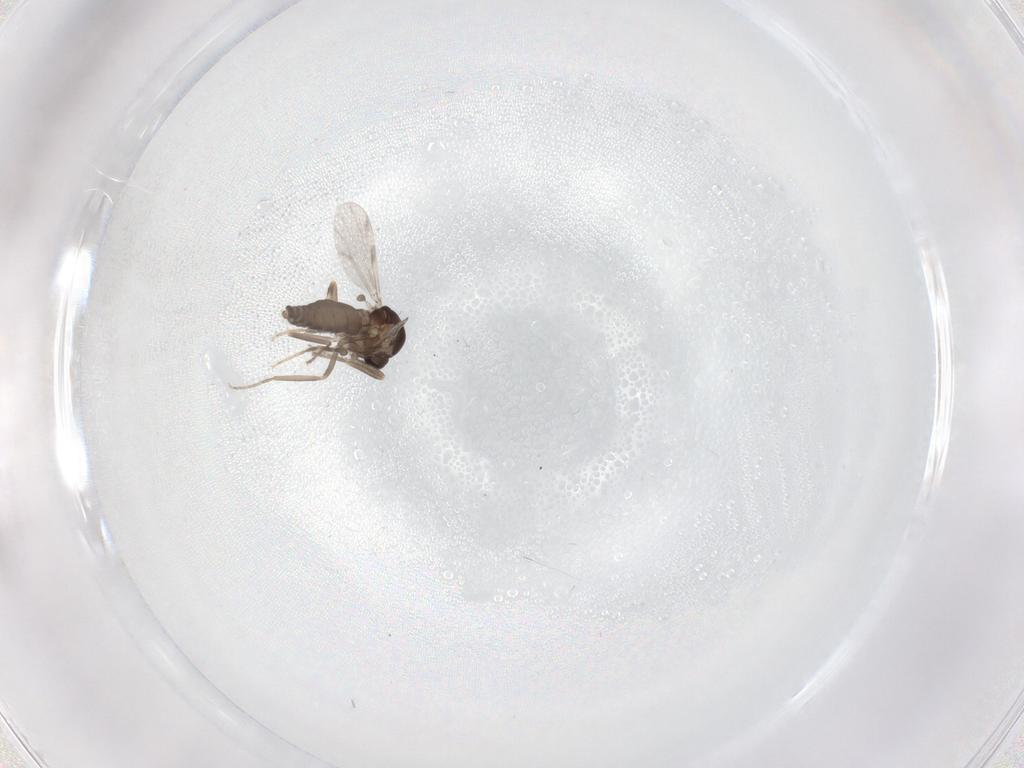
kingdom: Animalia
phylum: Arthropoda
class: Insecta
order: Diptera
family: Ceratopogonidae
